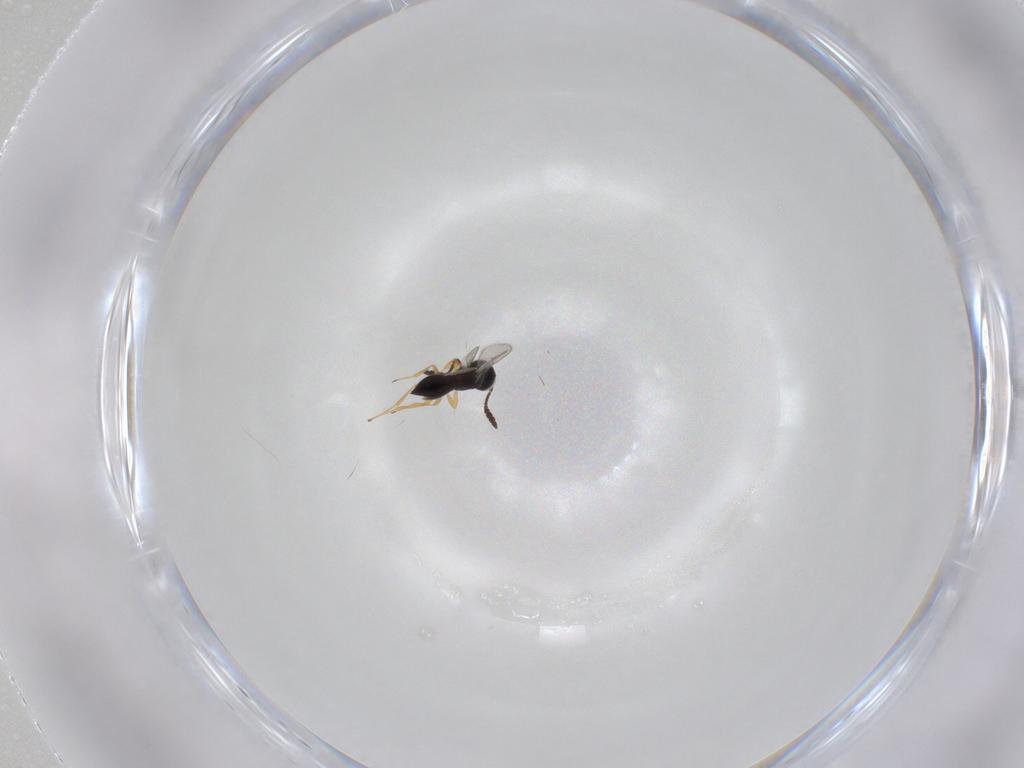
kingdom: Animalia
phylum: Arthropoda
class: Insecta
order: Hymenoptera
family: Scelionidae
